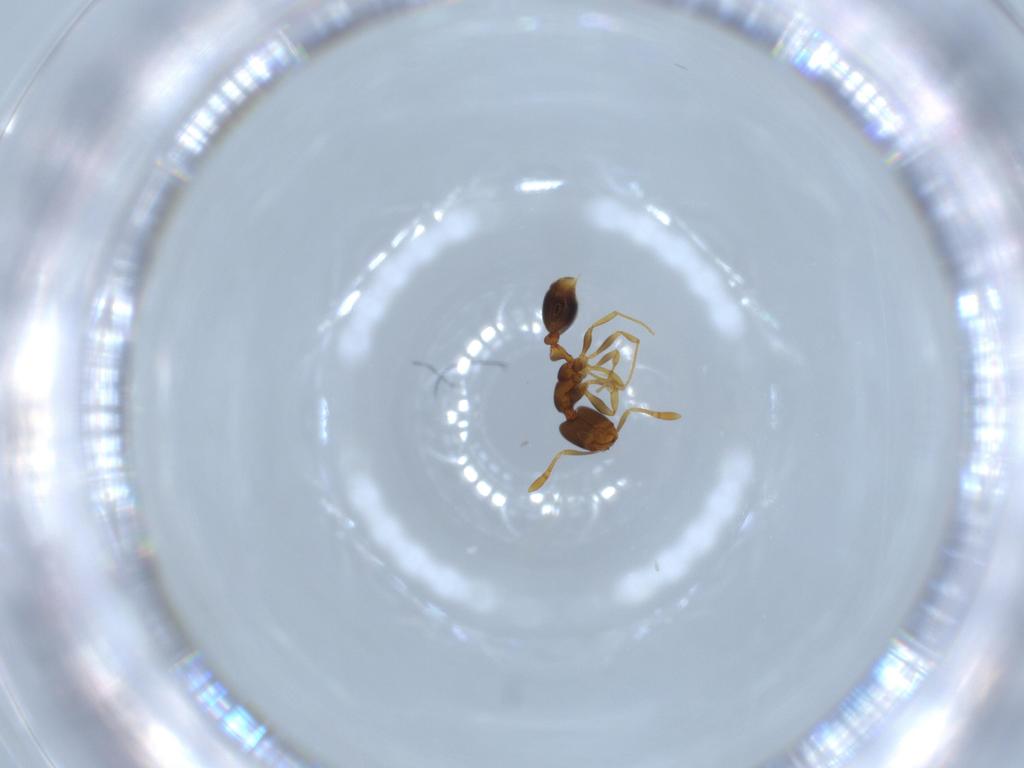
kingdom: Animalia
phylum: Arthropoda
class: Insecta
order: Hymenoptera
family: Formicidae
